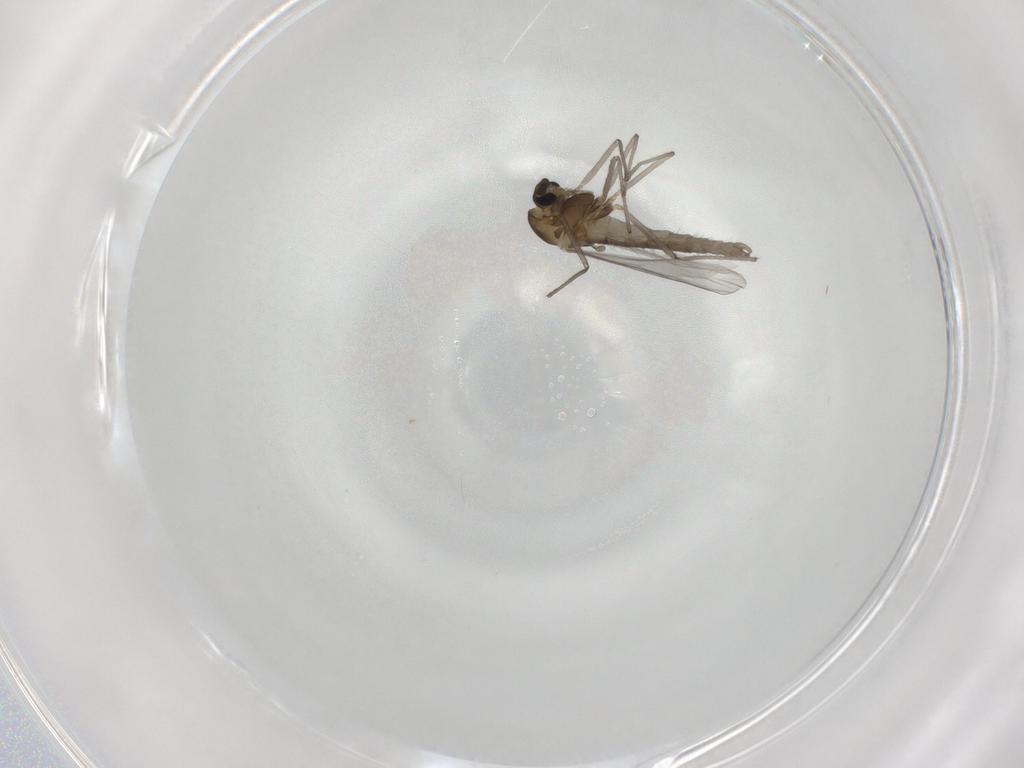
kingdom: Animalia
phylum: Arthropoda
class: Insecta
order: Diptera
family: Chironomidae
